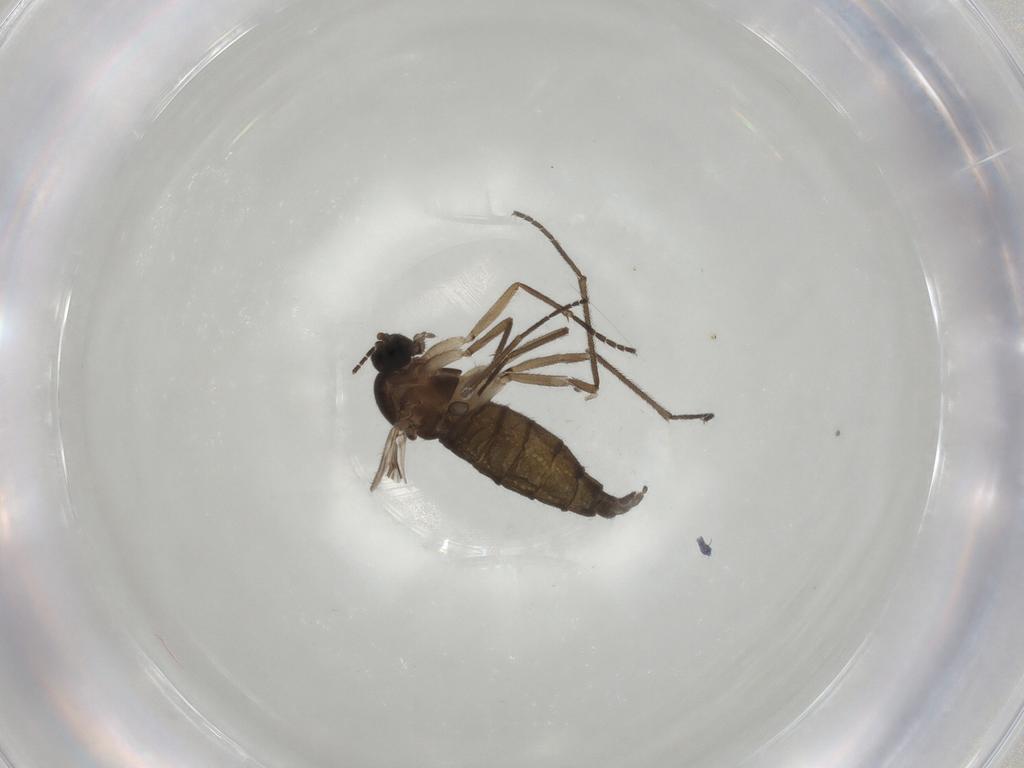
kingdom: Animalia
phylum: Arthropoda
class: Insecta
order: Diptera
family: Sciaridae
